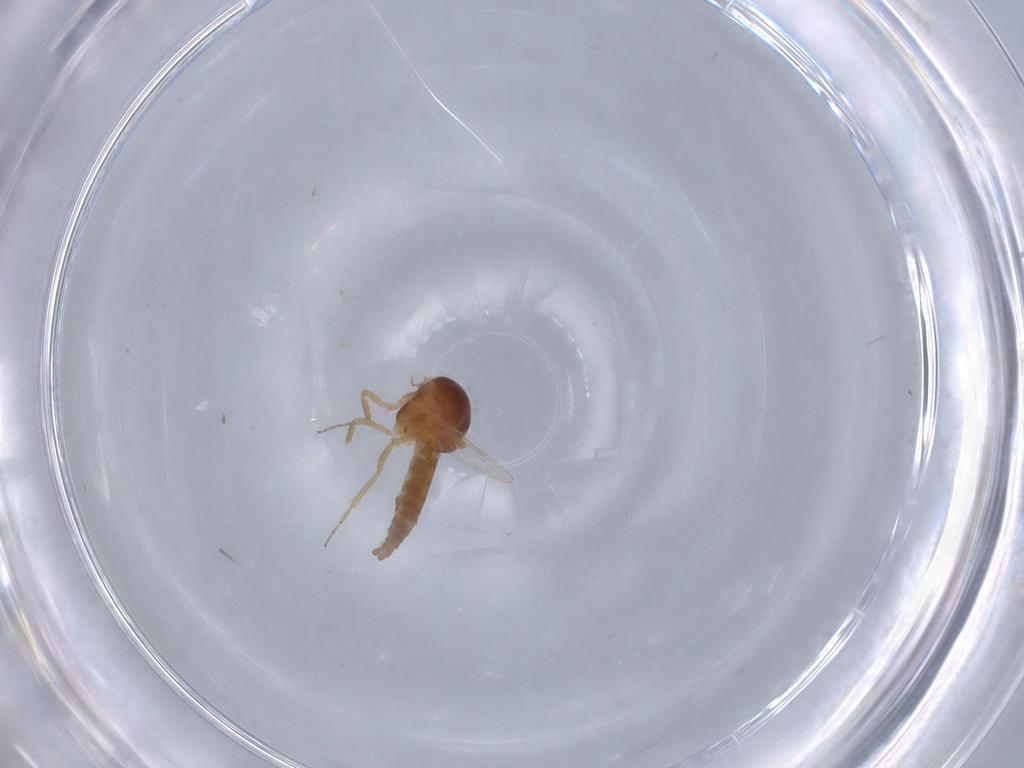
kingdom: Animalia
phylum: Arthropoda
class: Insecta
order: Diptera
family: Ceratopogonidae
